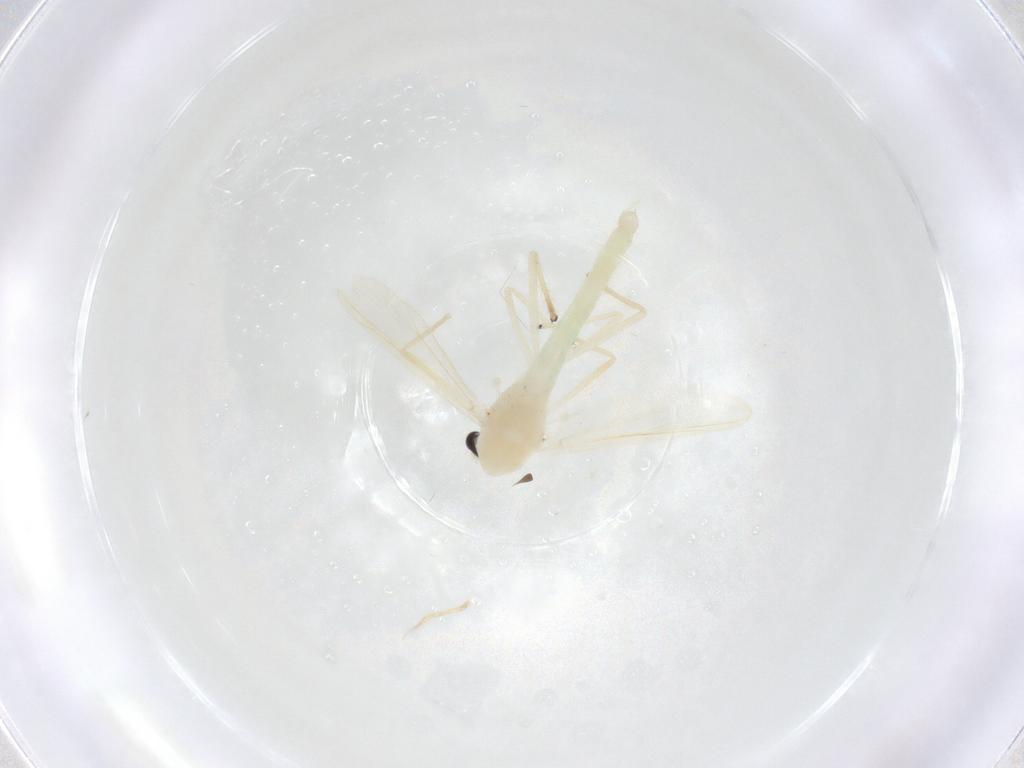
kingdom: Animalia
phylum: Arthropoda
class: Insecta
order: Diptera
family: Chironomidae
